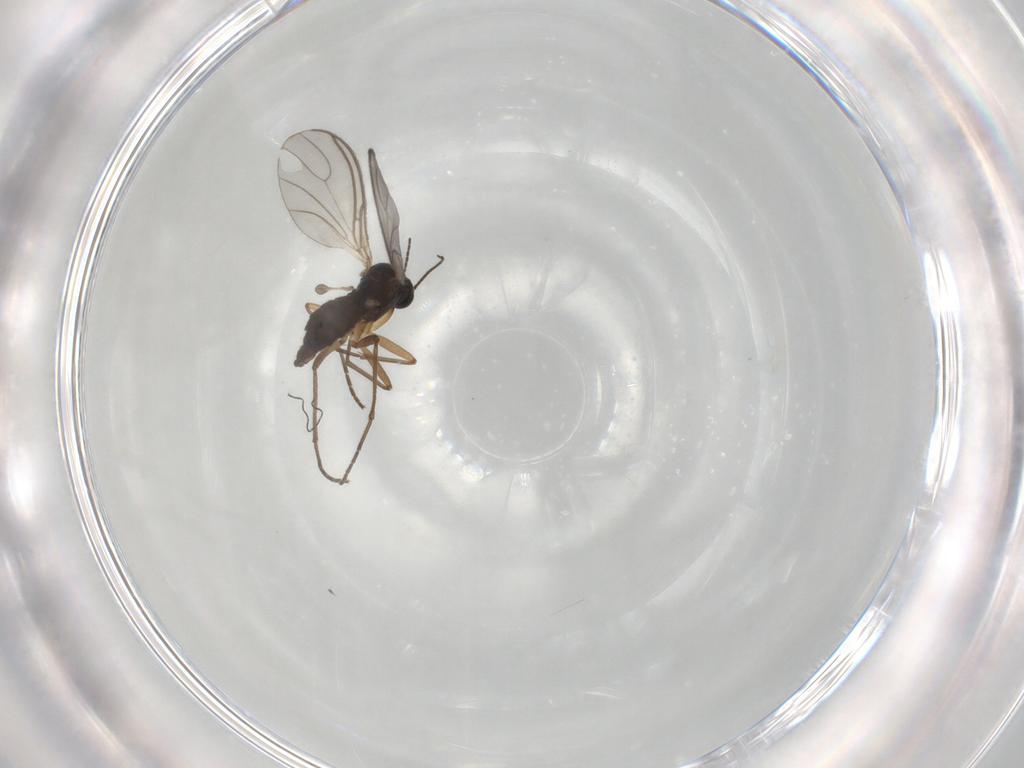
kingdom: Animalia
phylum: Arthropoda
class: Insecta
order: Diptera
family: Sciaridae
